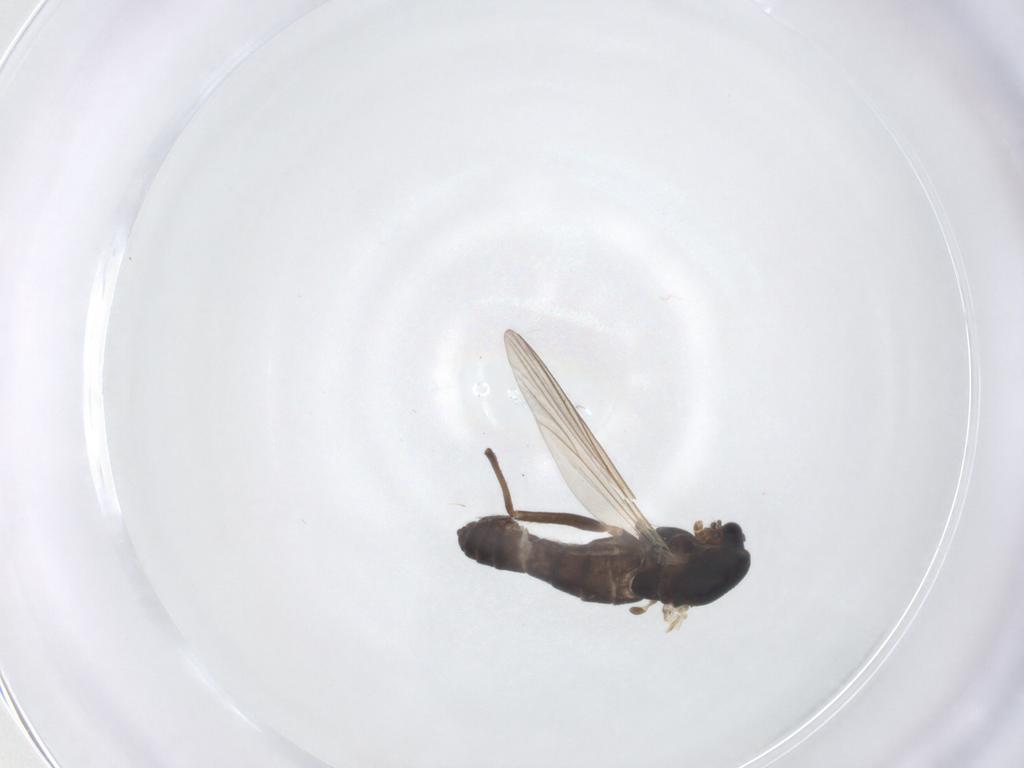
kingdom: Animalia
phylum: Arthropoda
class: Insecta
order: Diptera
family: Chironomidae
